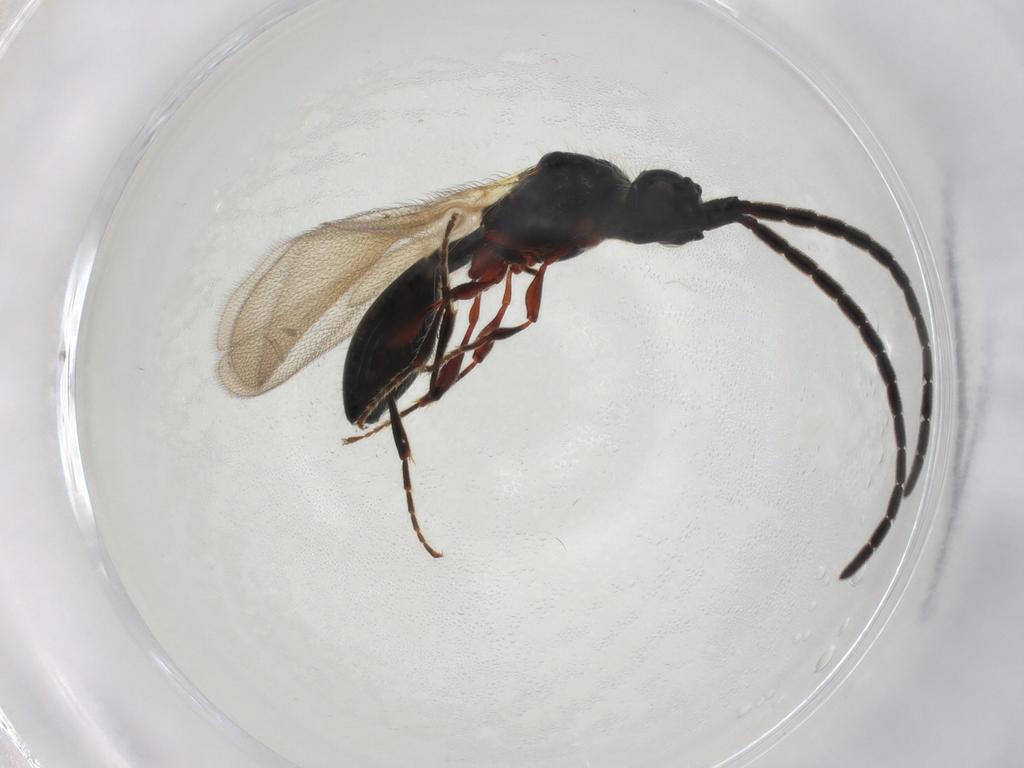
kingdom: Animalia
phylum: Arthropoda
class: Insecta
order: Hymenoptera
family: Diapriidae
